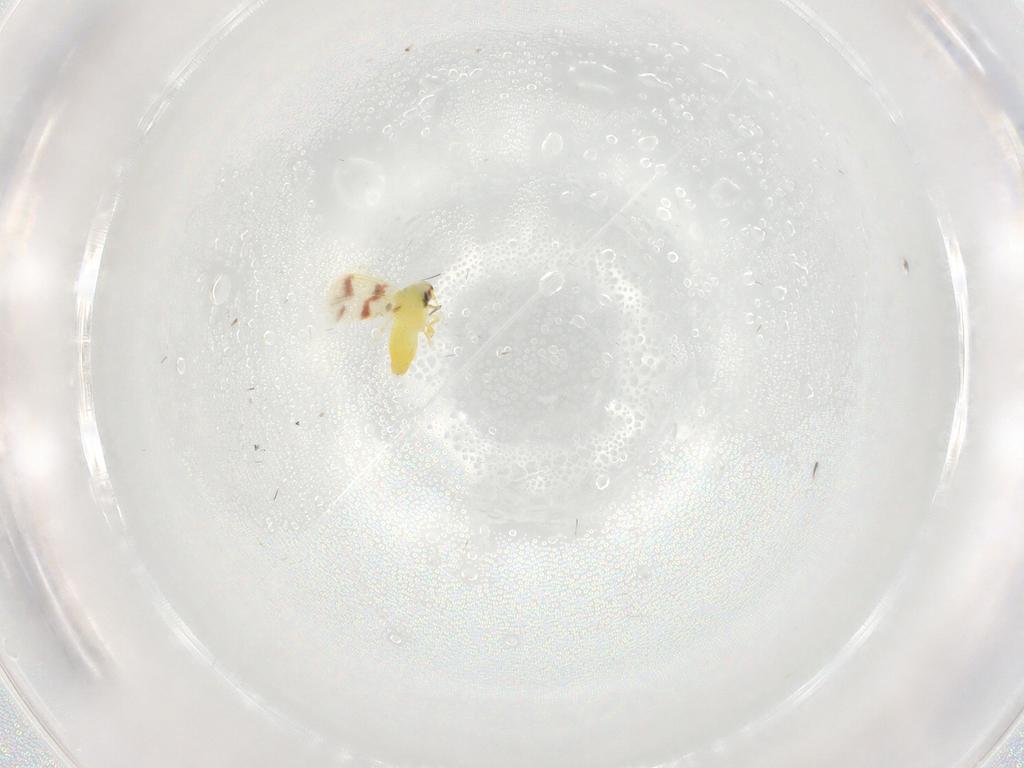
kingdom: Animalia
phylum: Arthropoda
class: Insecta
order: Hemiptera
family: Aleyrodidae
